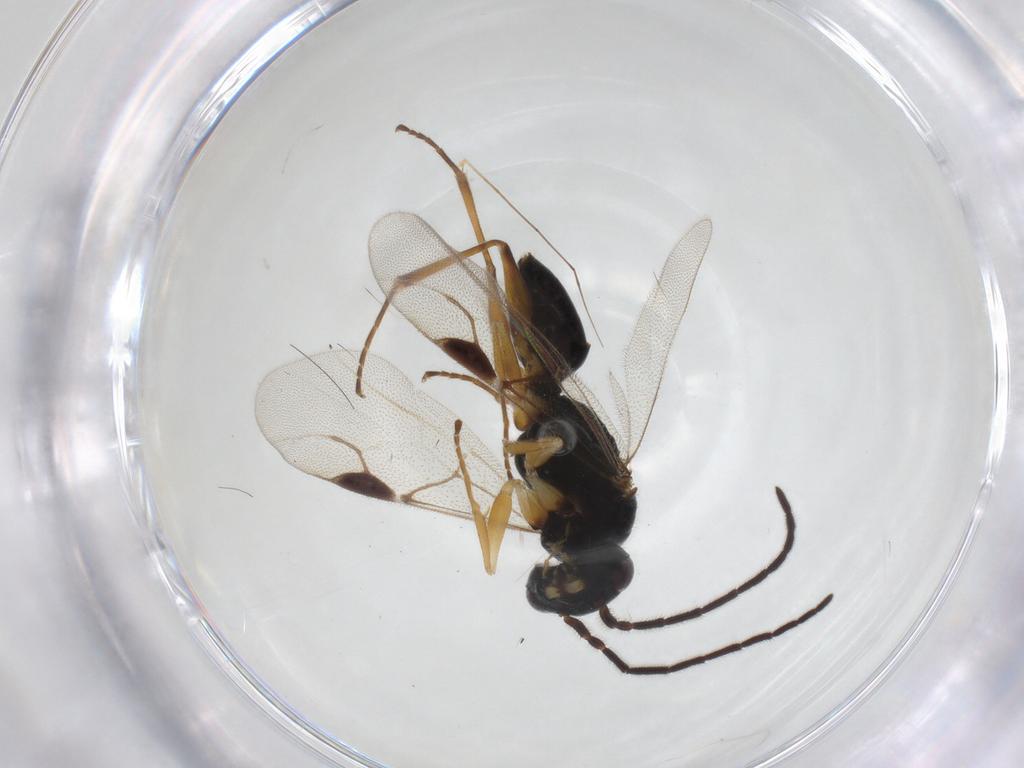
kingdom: Animalia
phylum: Arthropoda
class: Insecta
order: Hymenoptera
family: Dryinidae
